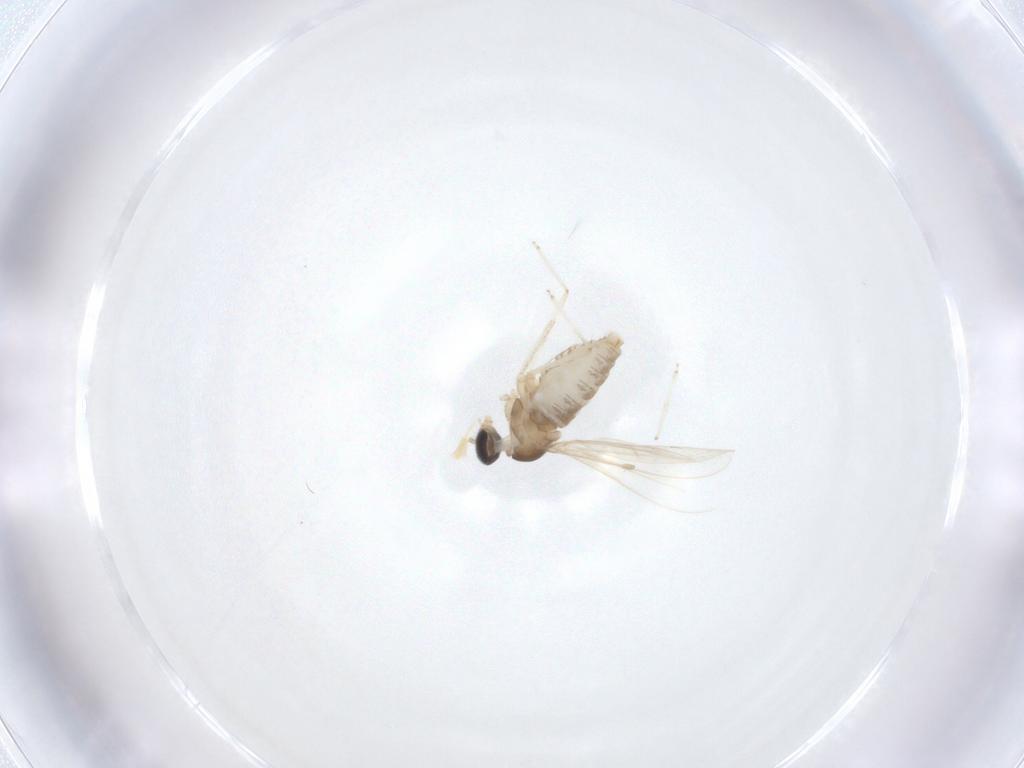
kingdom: Animalia
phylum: Arthropoda
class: Insecta
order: Diptera
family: Cecidomyiidae
